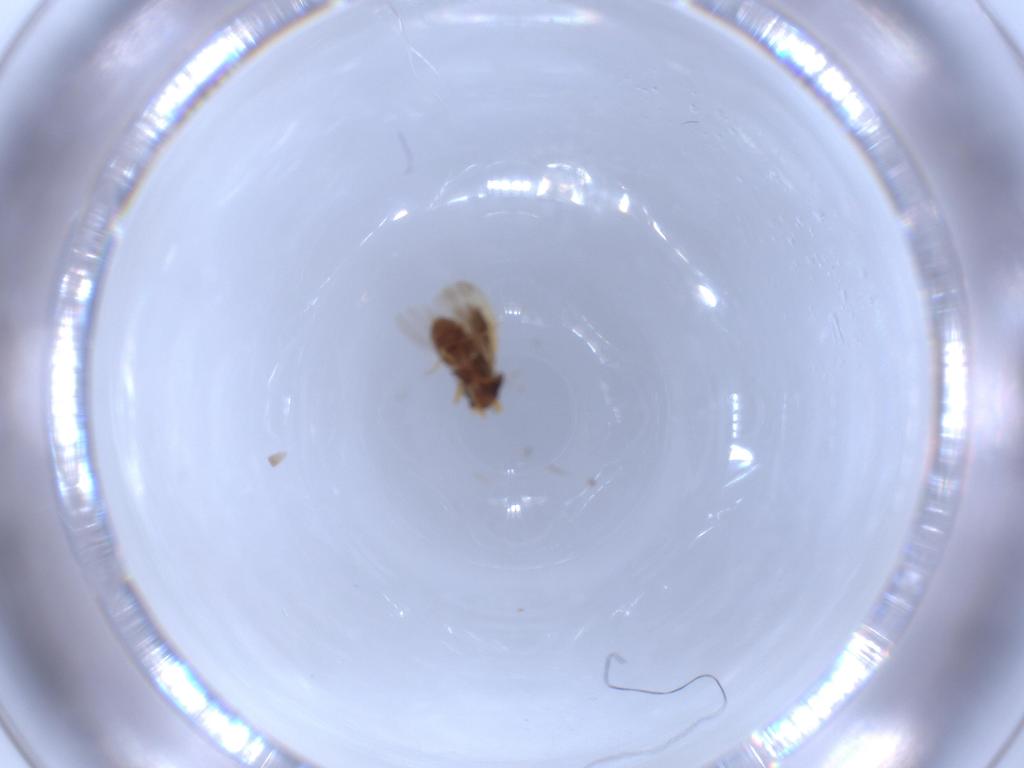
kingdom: Animalia
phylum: Arthropoda
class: Insecta
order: Hemiptera
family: Schizopteridae
